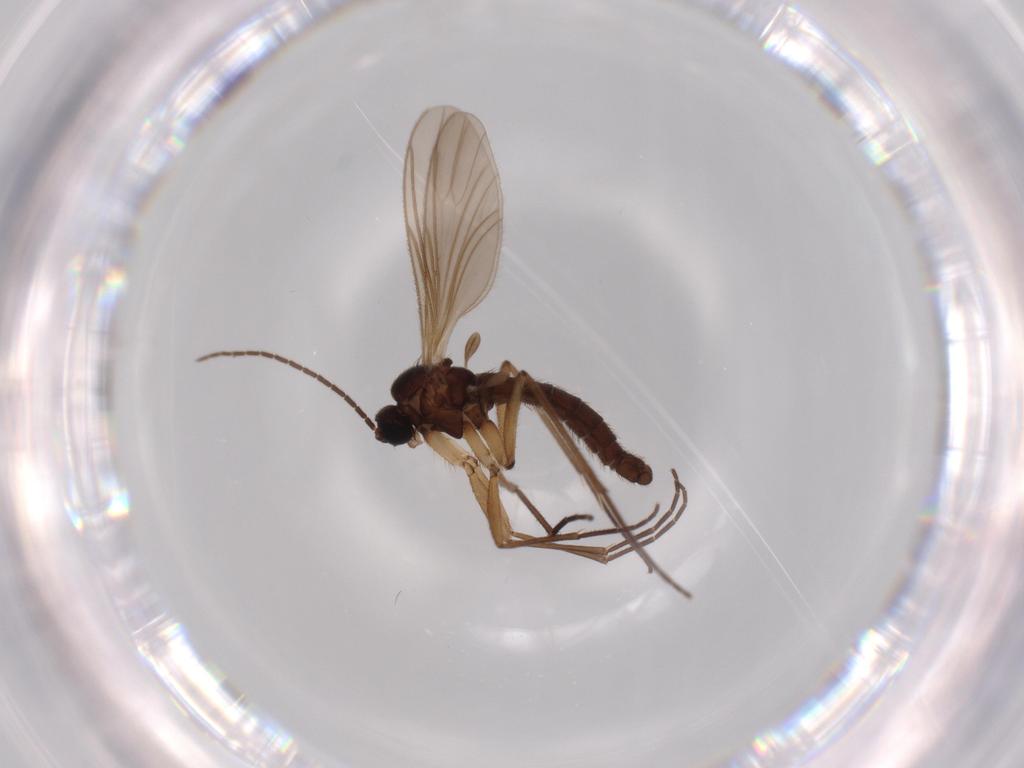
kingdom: Animalia
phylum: Arthropoda
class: Insecta
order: Diptera
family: Sciaridae
